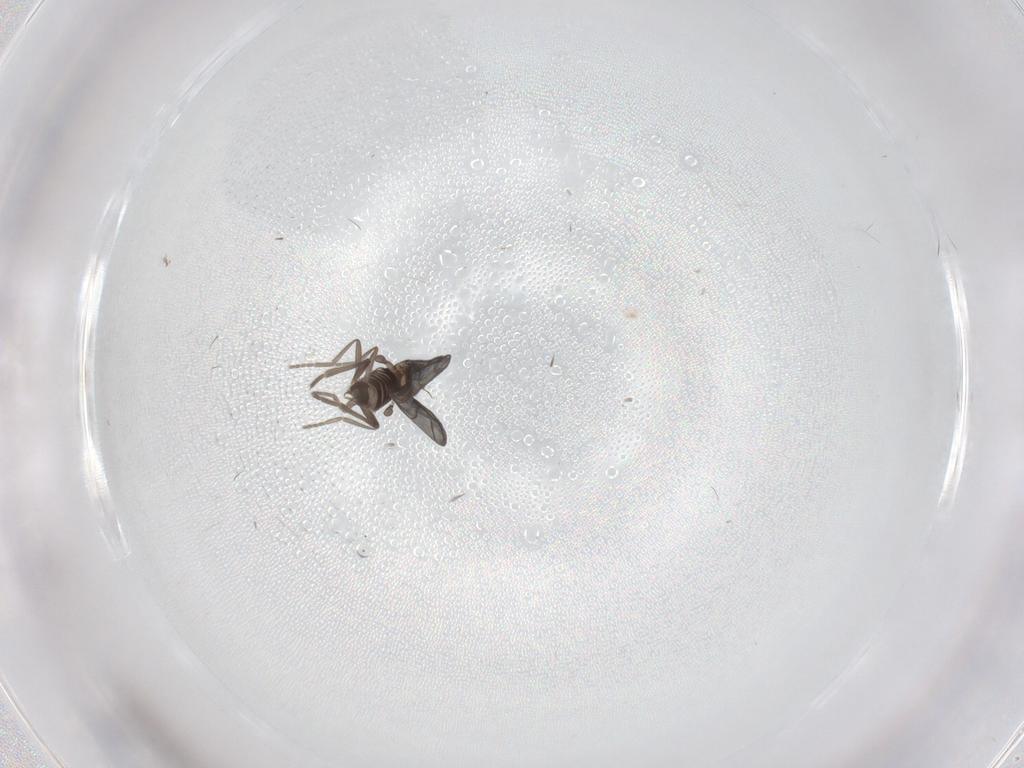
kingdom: Animalia
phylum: Arthropoda
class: Insecta
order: Diptera
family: Phoridae
